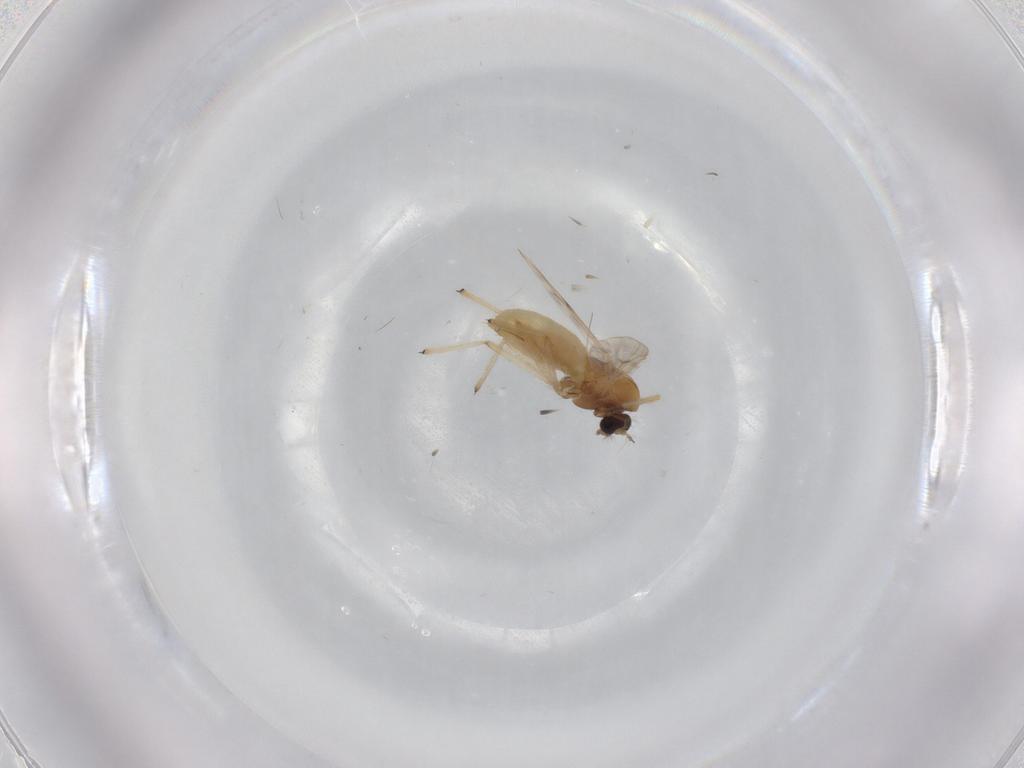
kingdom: Animalia
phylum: Arthropoda
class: Insecta
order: Diptera
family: Chironomidae
